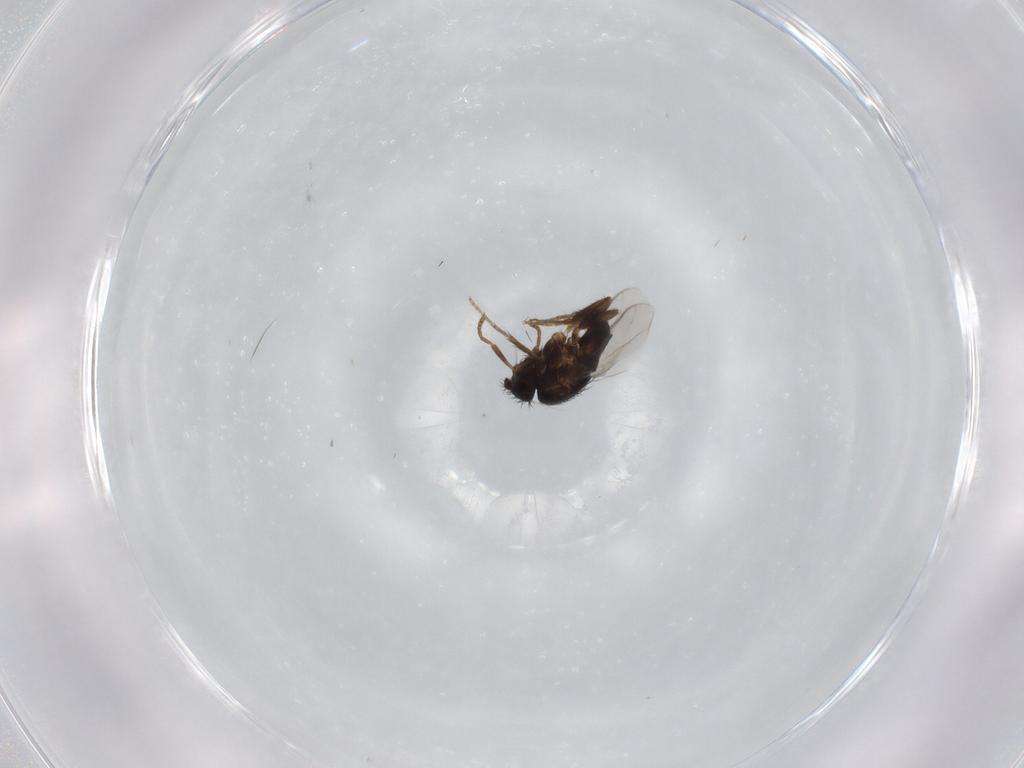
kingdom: Animalia
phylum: Arthropoda
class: Insecta
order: Diptera
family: Sphaeroceridae
